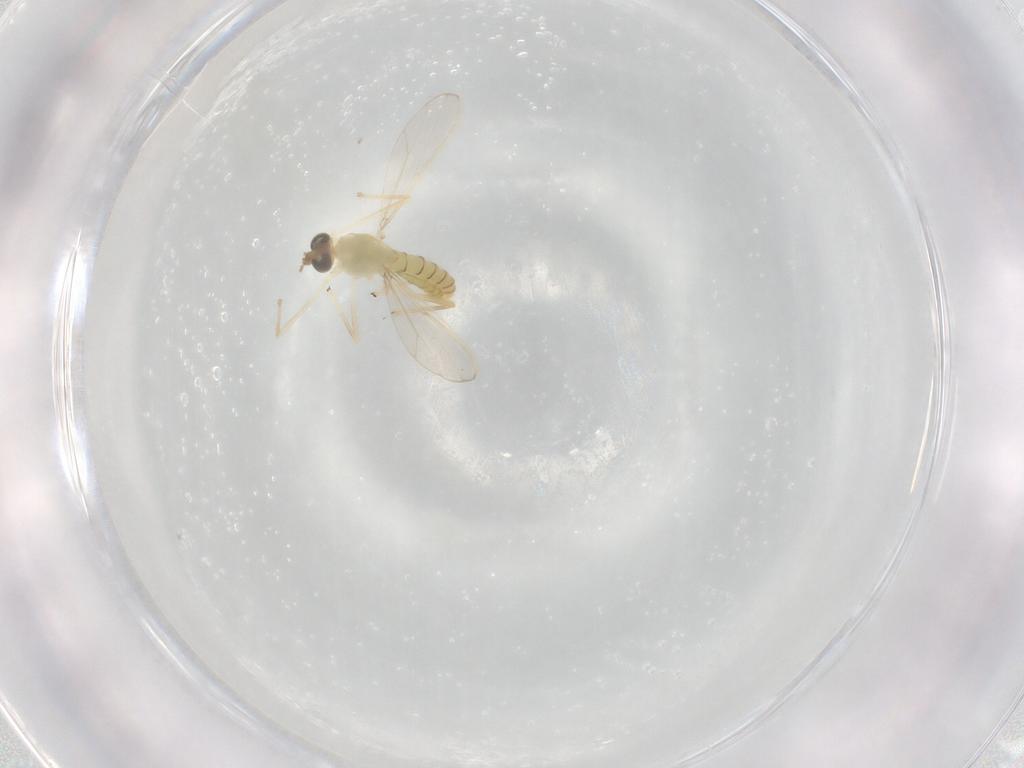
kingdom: Animalia
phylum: Arthropoda
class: Insecta
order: Diptera
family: Chironomidae
